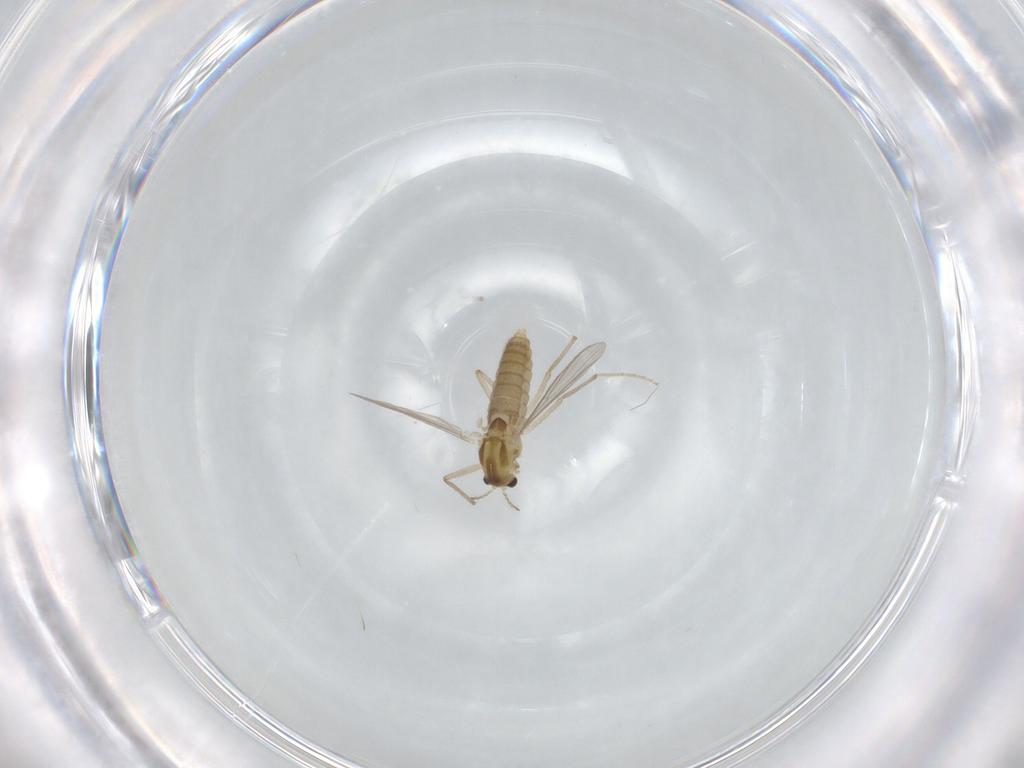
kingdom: Animalia
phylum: Arthropoda
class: Insecta
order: Diptera
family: Chironomidae
